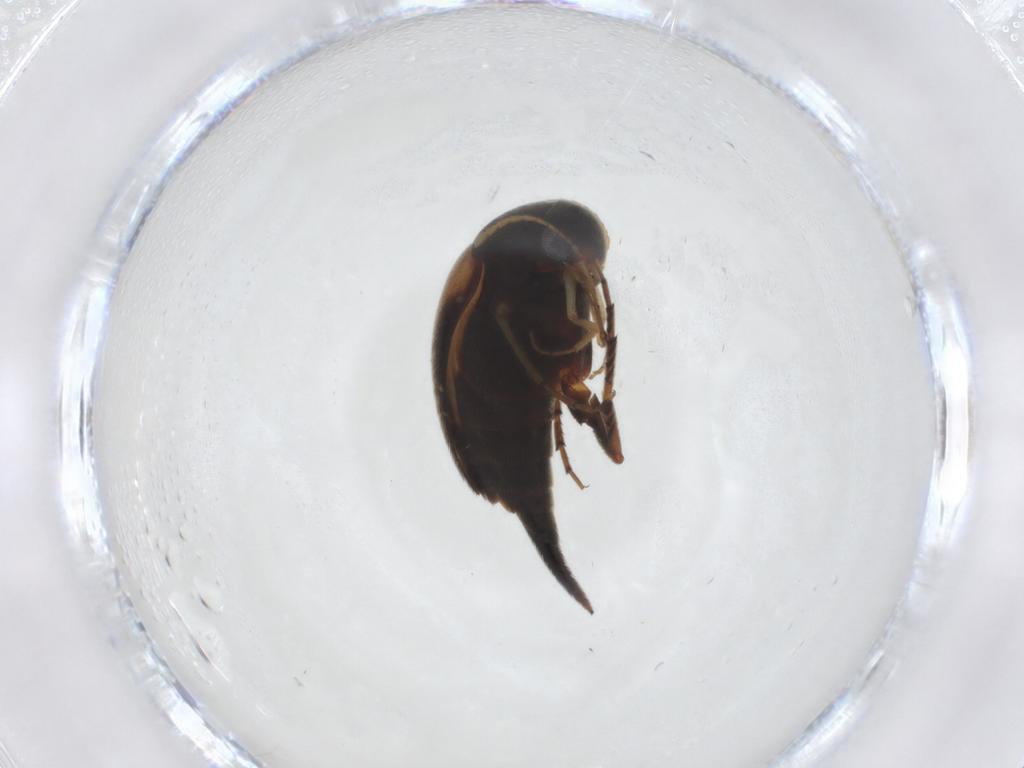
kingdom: Animalia
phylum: Arthropoda
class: Insecta
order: Coleoptera
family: Mordellidae
